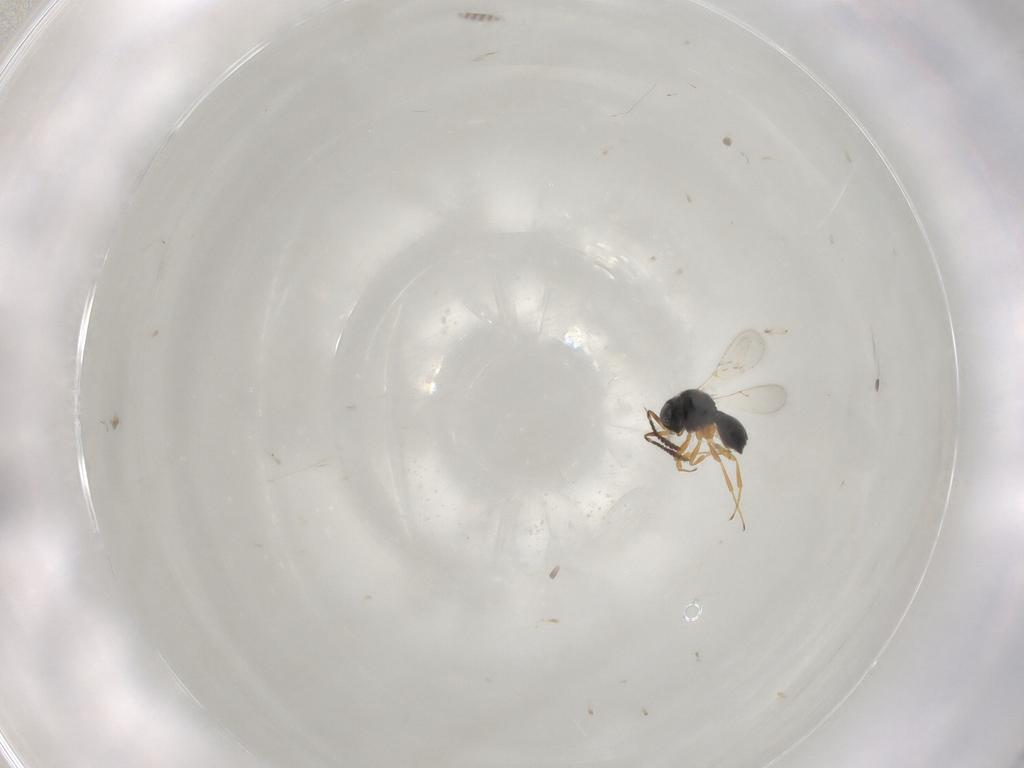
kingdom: Animalia
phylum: Arthropoda
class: Insecta
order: Hymenoptera
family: Scelionidae
